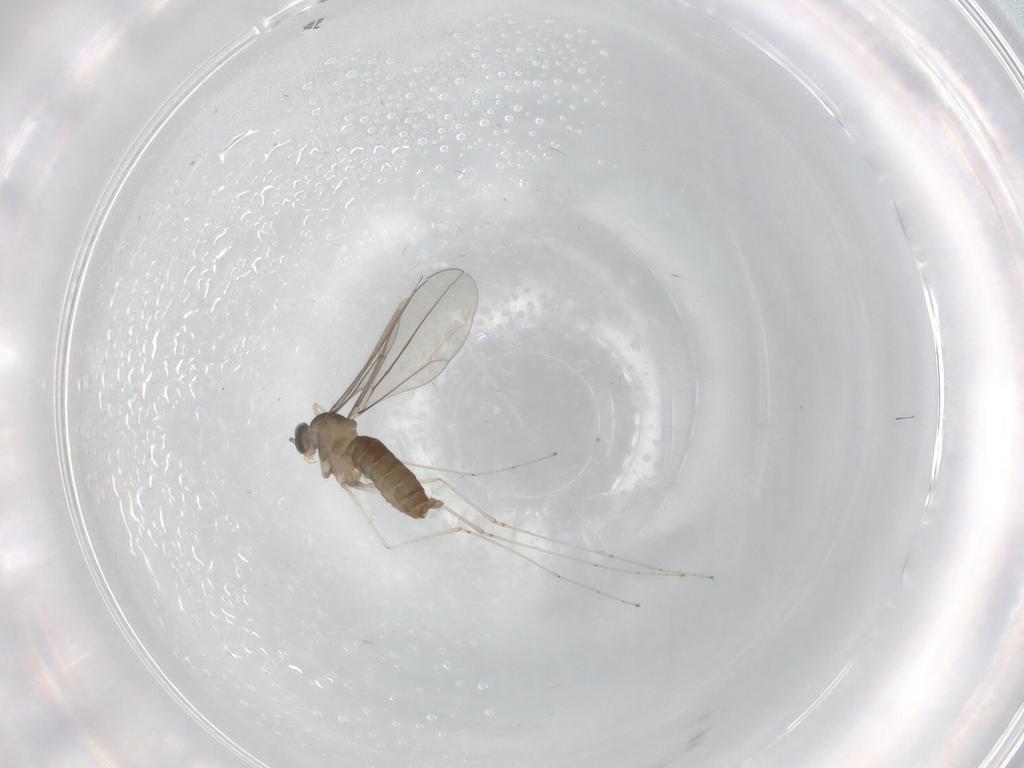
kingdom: Animalia
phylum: Arthropoda
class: Insecta
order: Diptera
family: Cecidomyiidae
